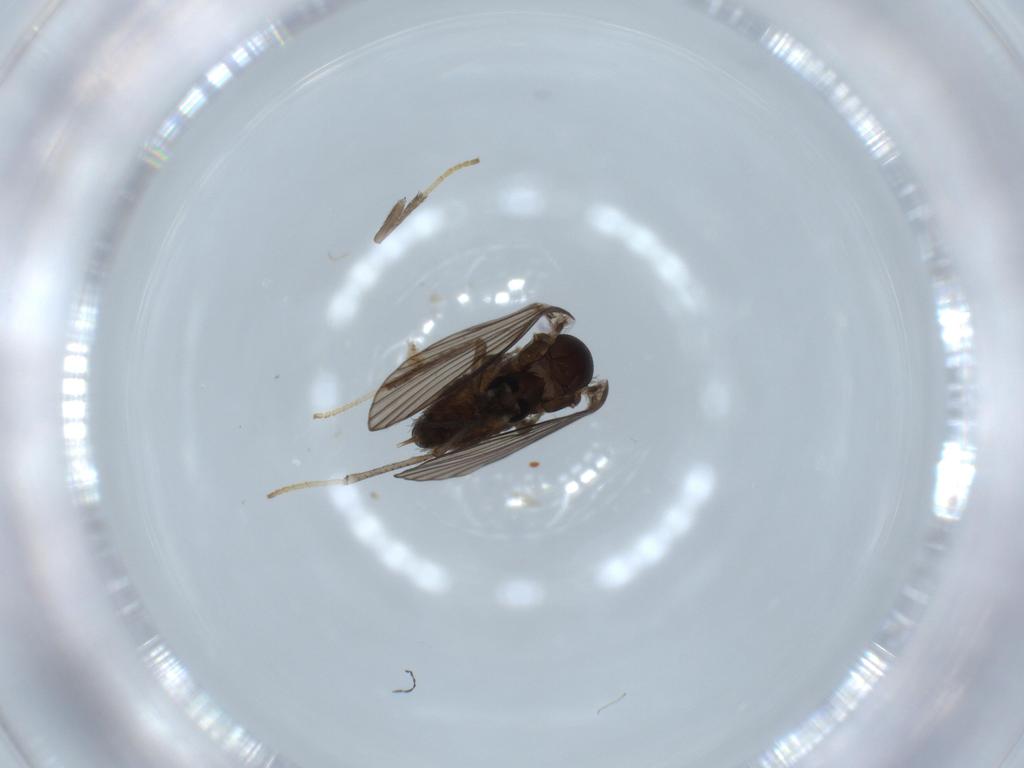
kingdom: Animalia
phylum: Arthropoda
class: Insecta
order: Diptera
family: Psychodidae
